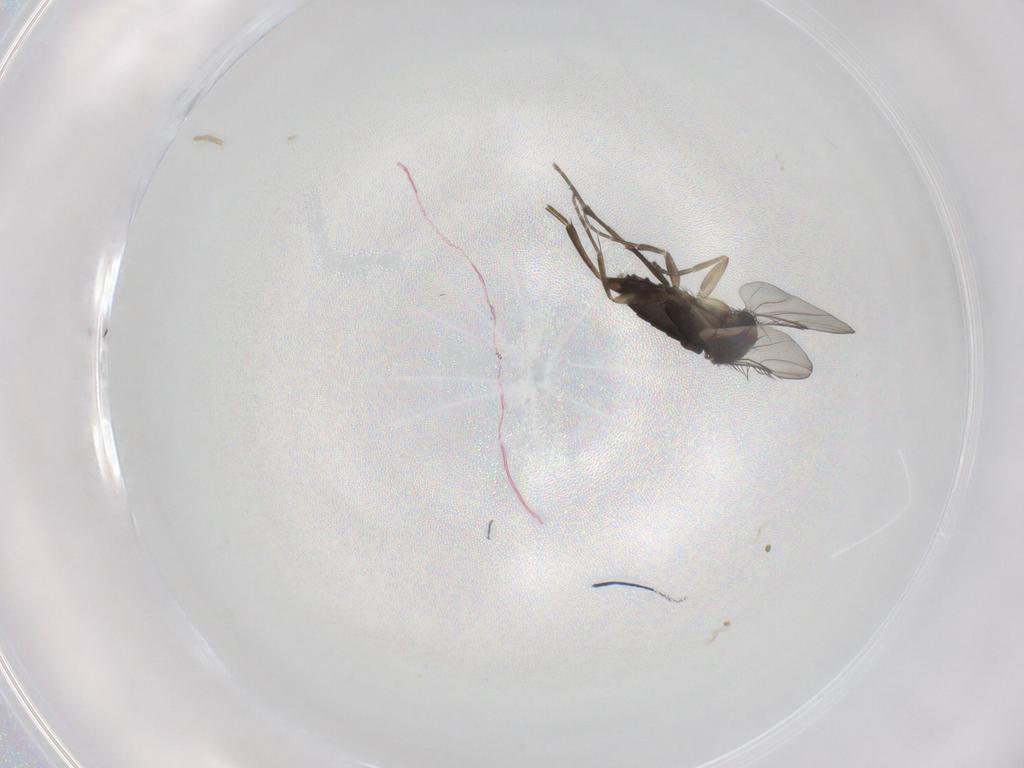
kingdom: Animalia
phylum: Arthropoda
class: Insecta
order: Diptera
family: Phoridae
